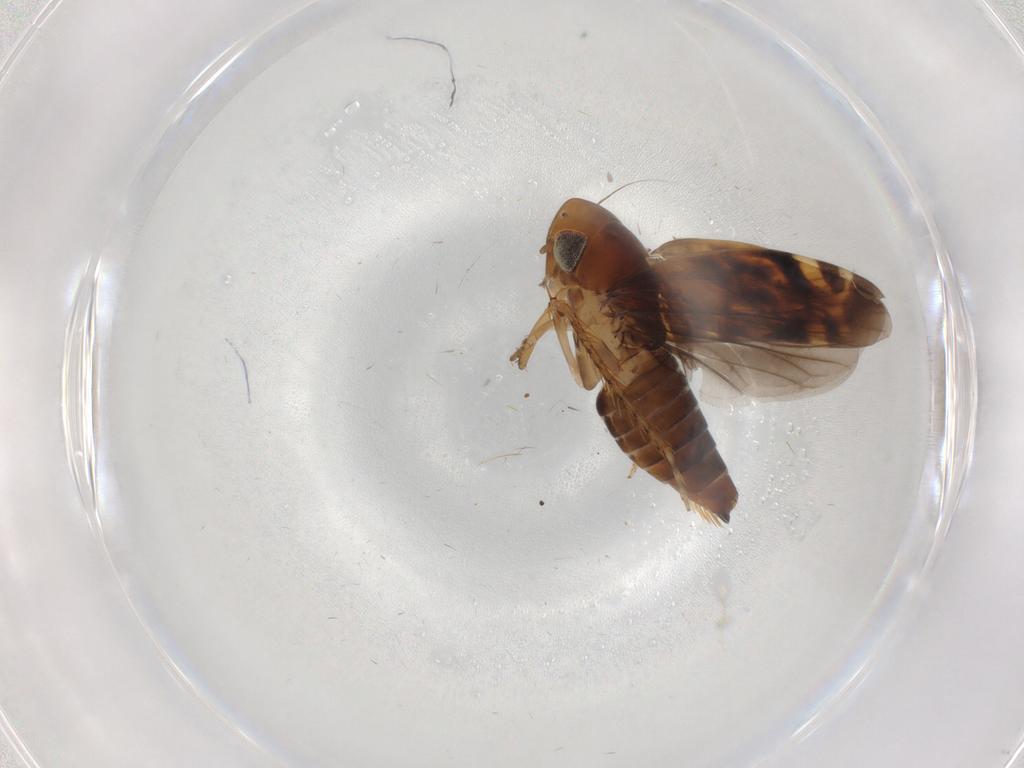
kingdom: Animalia
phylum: Arthropoda
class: Insecta
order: Hemiptera
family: Cicadellidae
